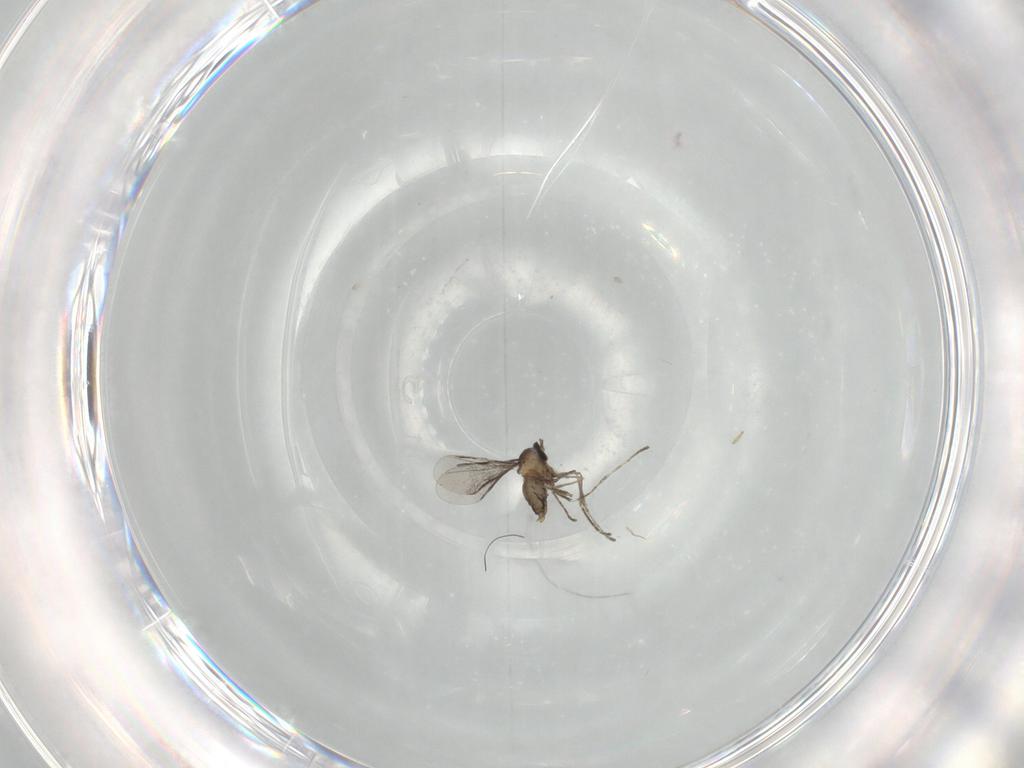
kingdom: Animalia
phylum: Arthropoda
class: Insecta
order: Diptera
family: Cecidomyiidae
